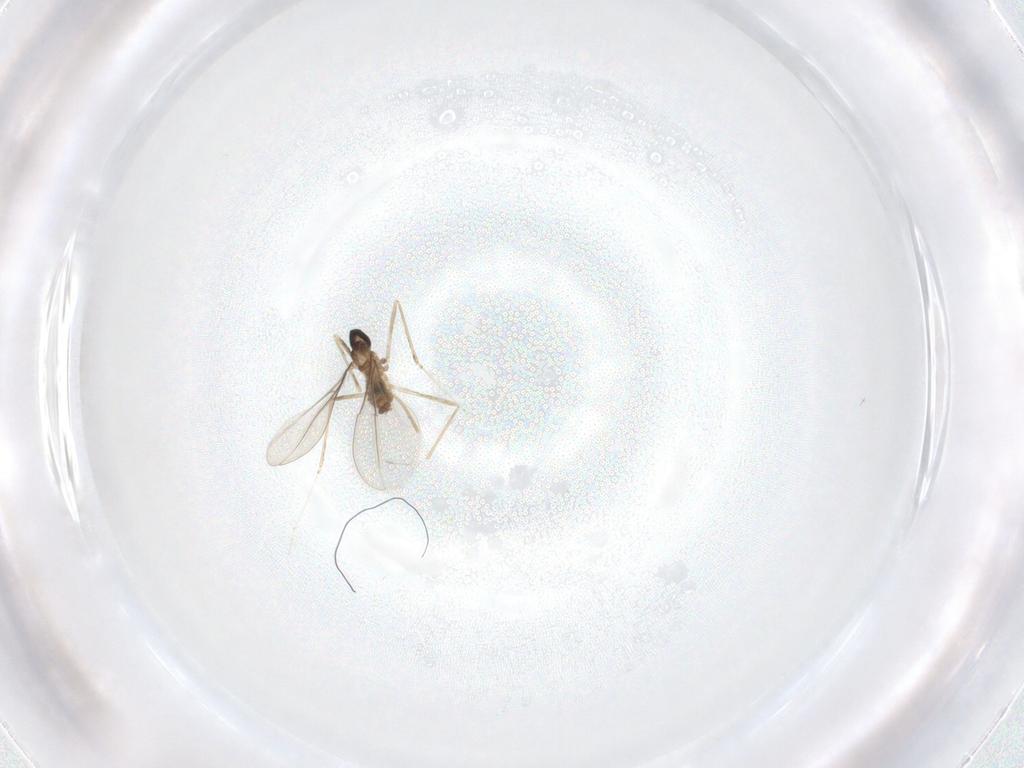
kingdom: Animalia
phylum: Arthropoda
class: Insecta
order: Diptera
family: Cecidomyiidae
